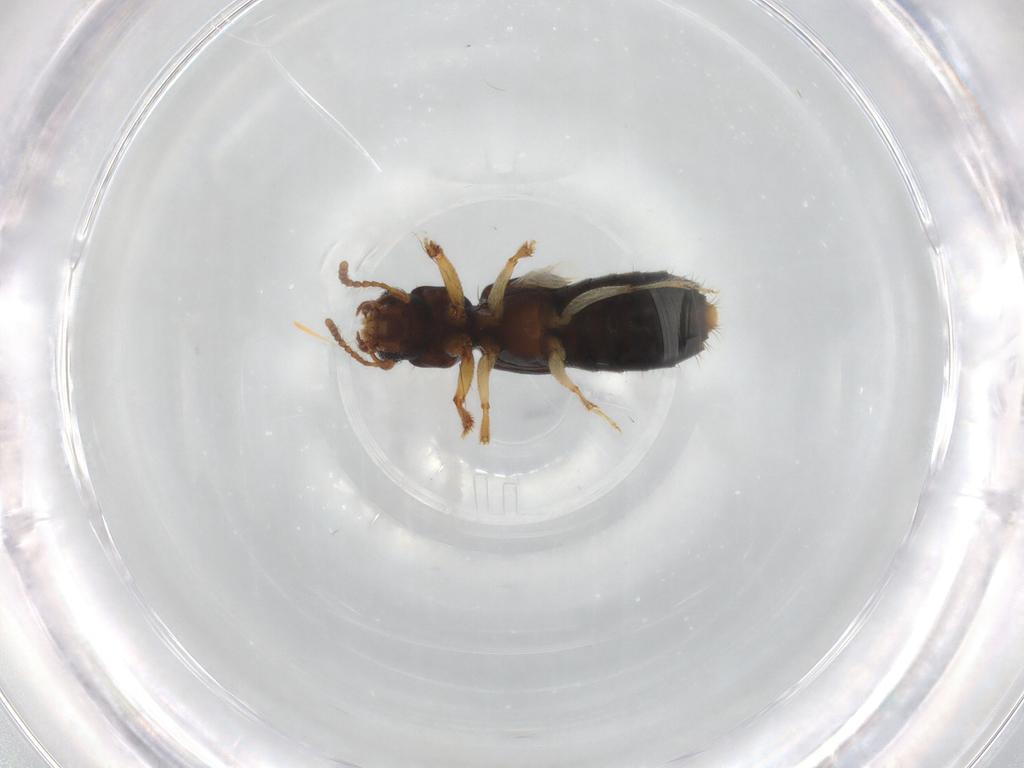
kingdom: Animalia
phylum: Arthropoda
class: Insecta
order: Coleoptera
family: Staphylinidae
